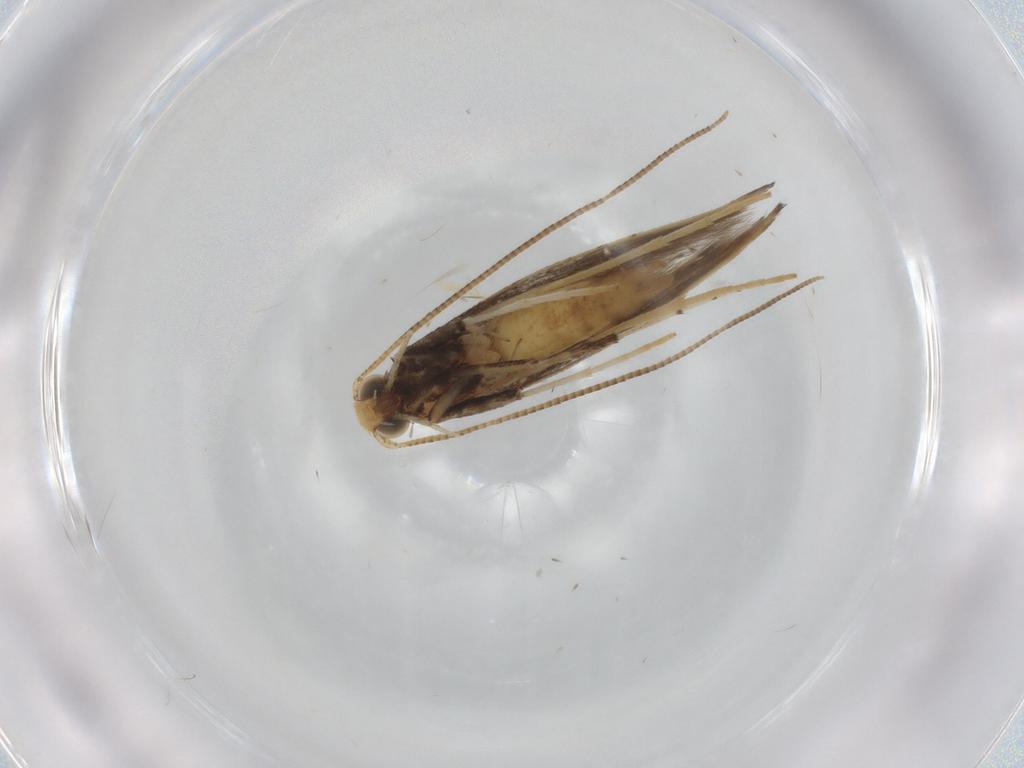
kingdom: Animalia
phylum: Arthropoda
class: Insecta
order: Lepidoptera
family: Gracillariidae
